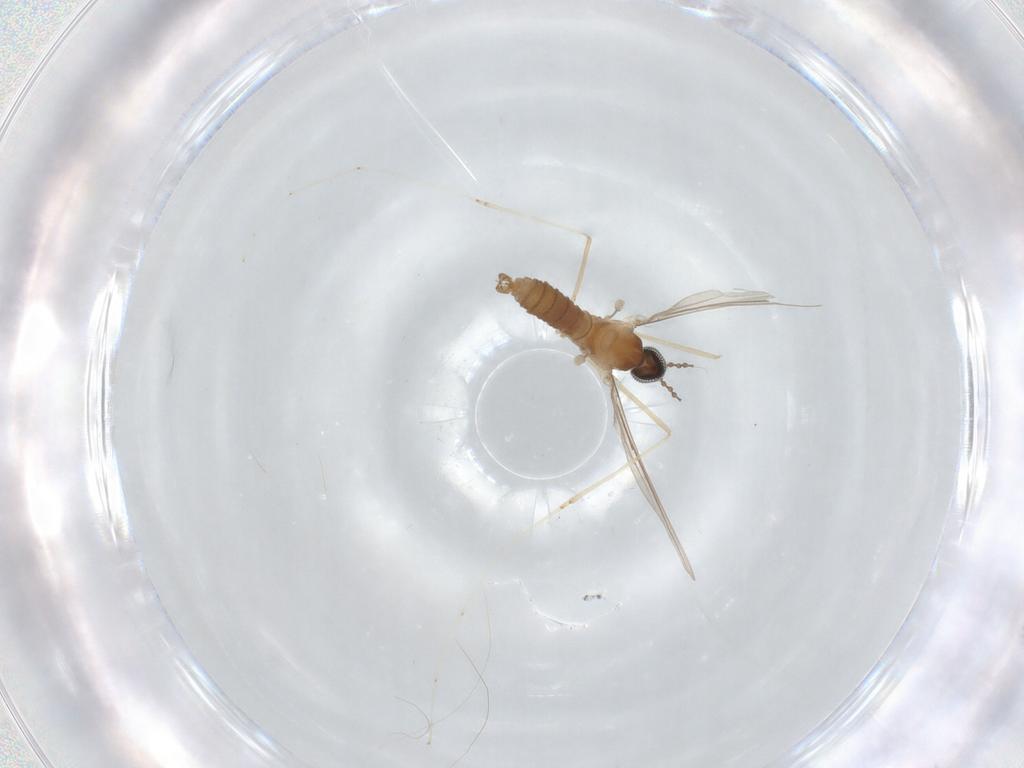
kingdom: Animalia
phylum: Arthropoda
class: Insecta
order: Diptera
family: Cecidomyiidae
